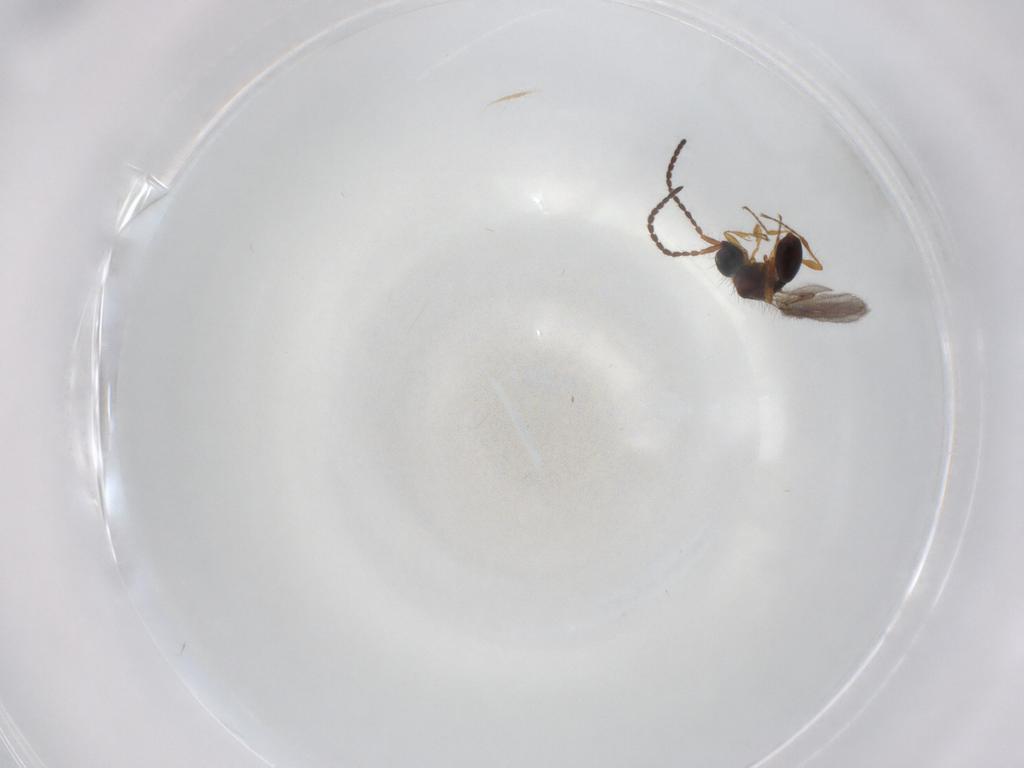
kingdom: Animalia
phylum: Arthropoda
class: Insecta
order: Hymenoptera
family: Diapriidae
